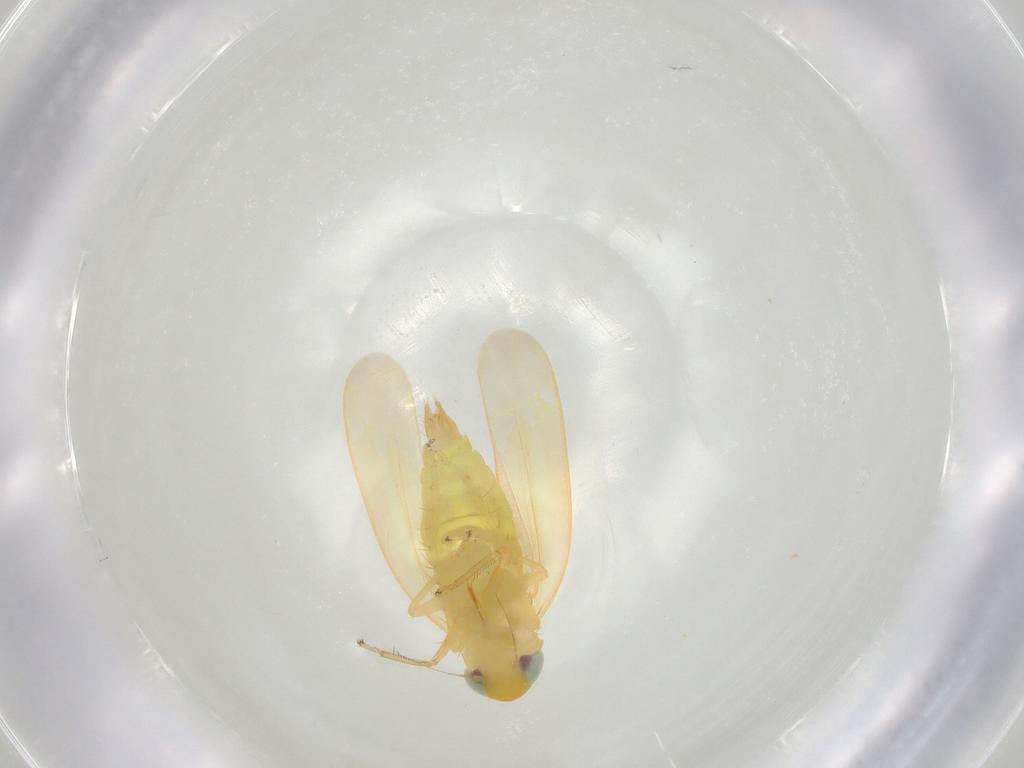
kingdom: Animalia
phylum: Arthropoda
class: Insecta
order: Hemiptera
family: Cicadellidae
